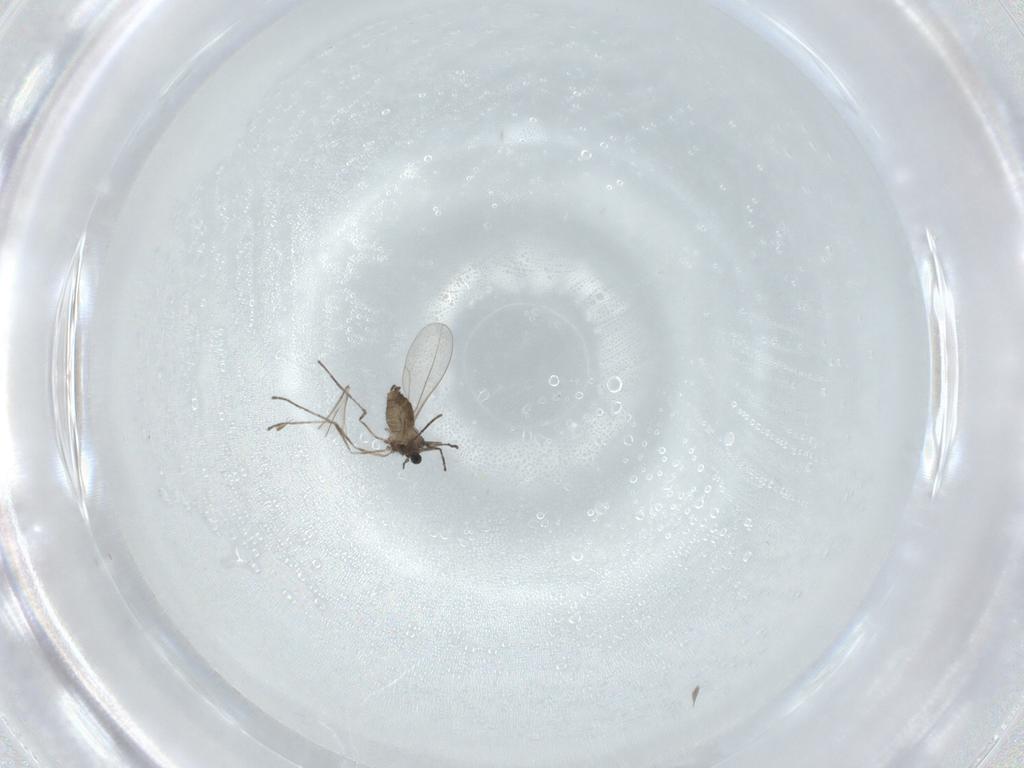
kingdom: Animalia
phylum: Arthropoda
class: Insecta
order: Diptera
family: Cecidomyiidae
